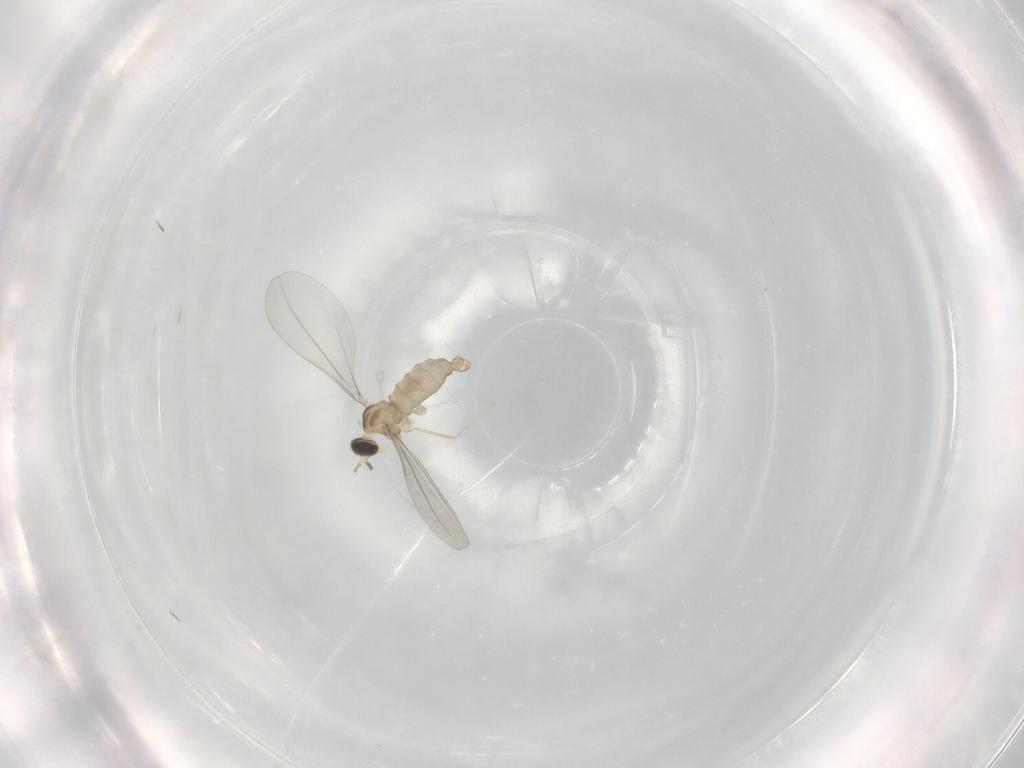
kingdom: Animalia
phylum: Arthropoda
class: Insecta
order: Diptera
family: Cecidomyiidae
